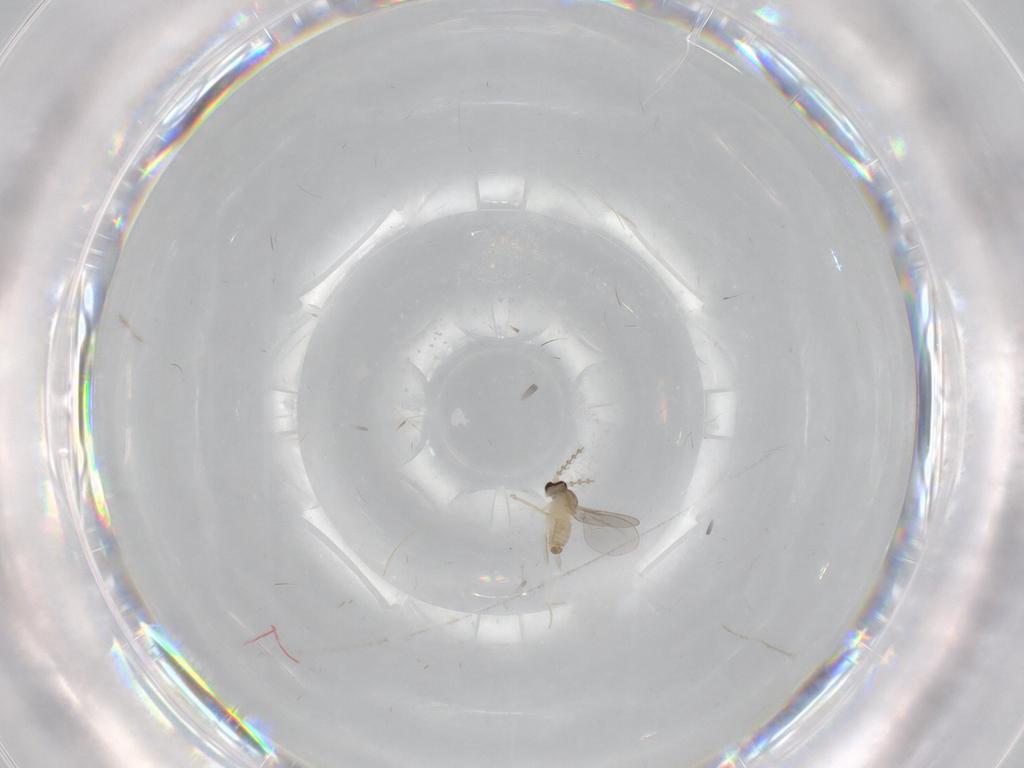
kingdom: Animalia
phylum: Arthropoda
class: Insecta
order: Diptera
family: Cecidomyiidae
